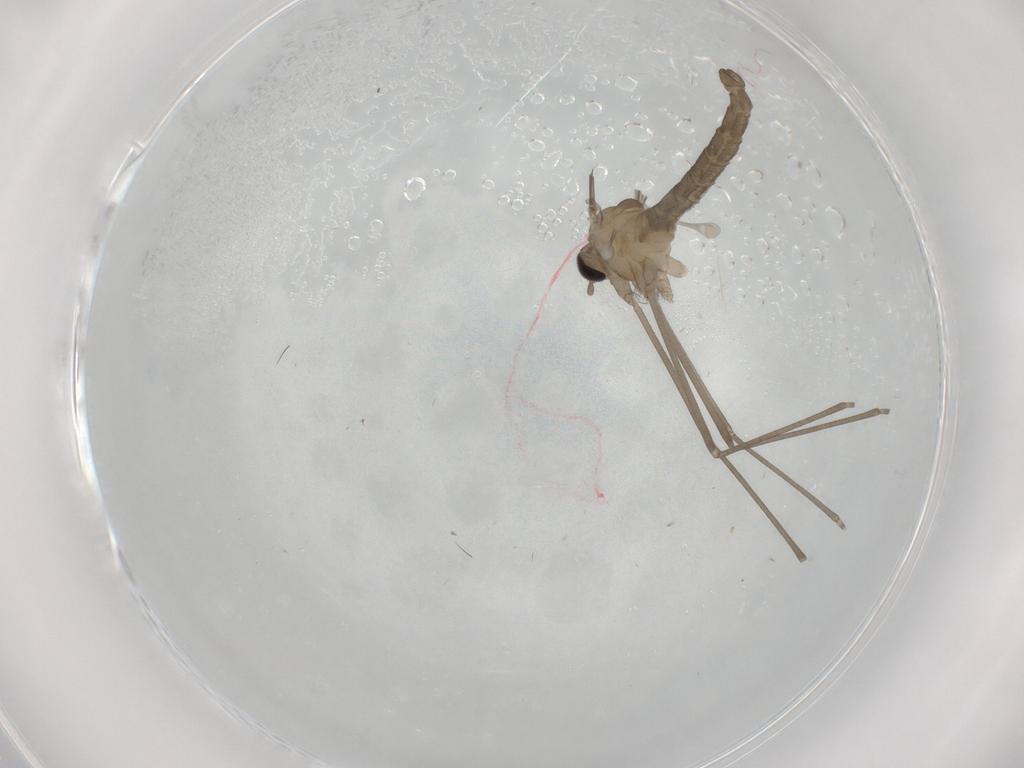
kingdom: Animalia
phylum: Arthropoda
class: Insecta
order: Diptera
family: Cecidomyiidae
